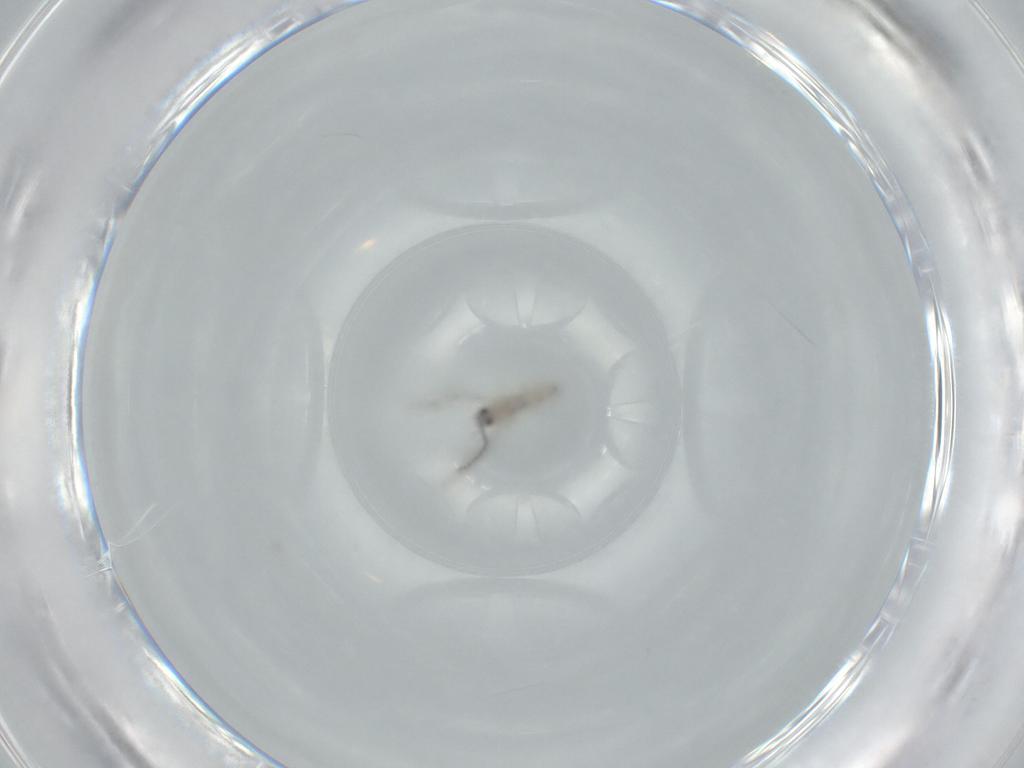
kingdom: Animalia
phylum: Arthropoda
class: Insecta
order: Diptera
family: Cecidomyiidae
